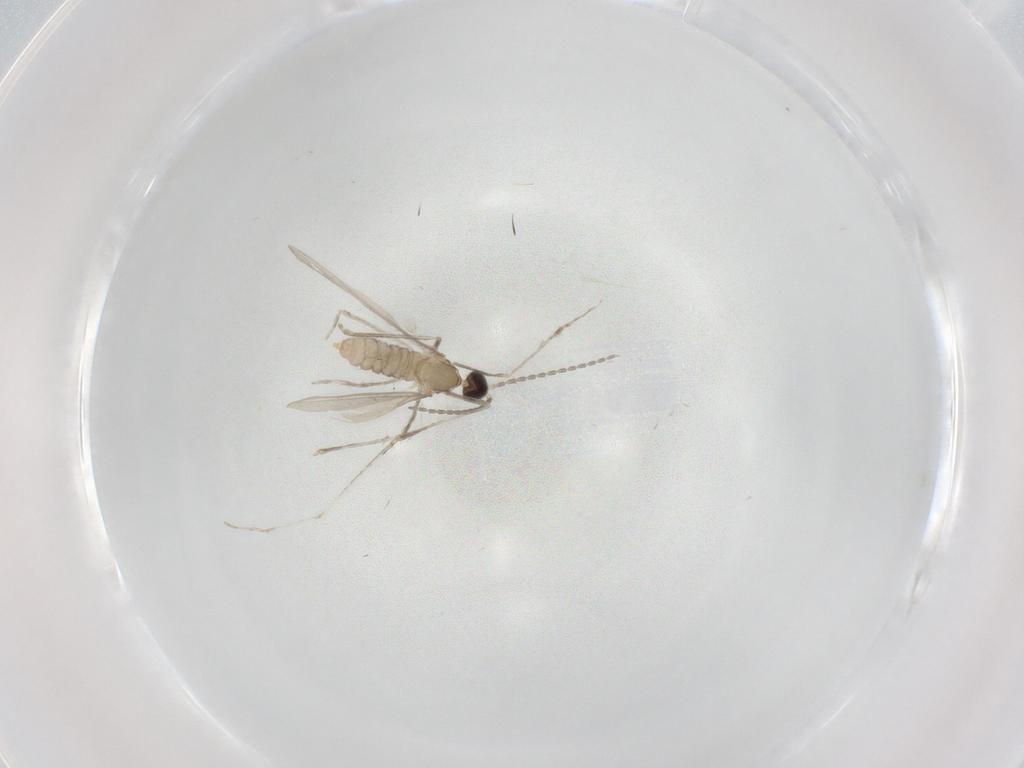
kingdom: Animalia
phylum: Arthropoda
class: Insecta
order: Diptera
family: Cecidomyiidae
